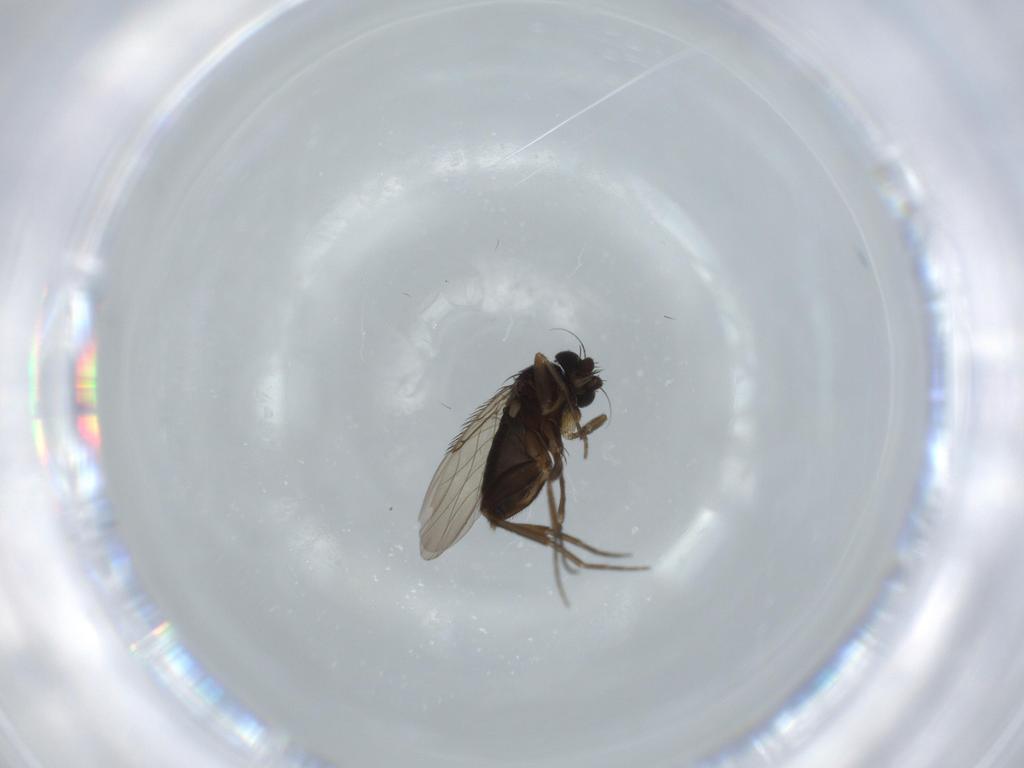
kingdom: Animalia
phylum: Arthropoda
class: Insecta
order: Diptera
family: Phoridae
